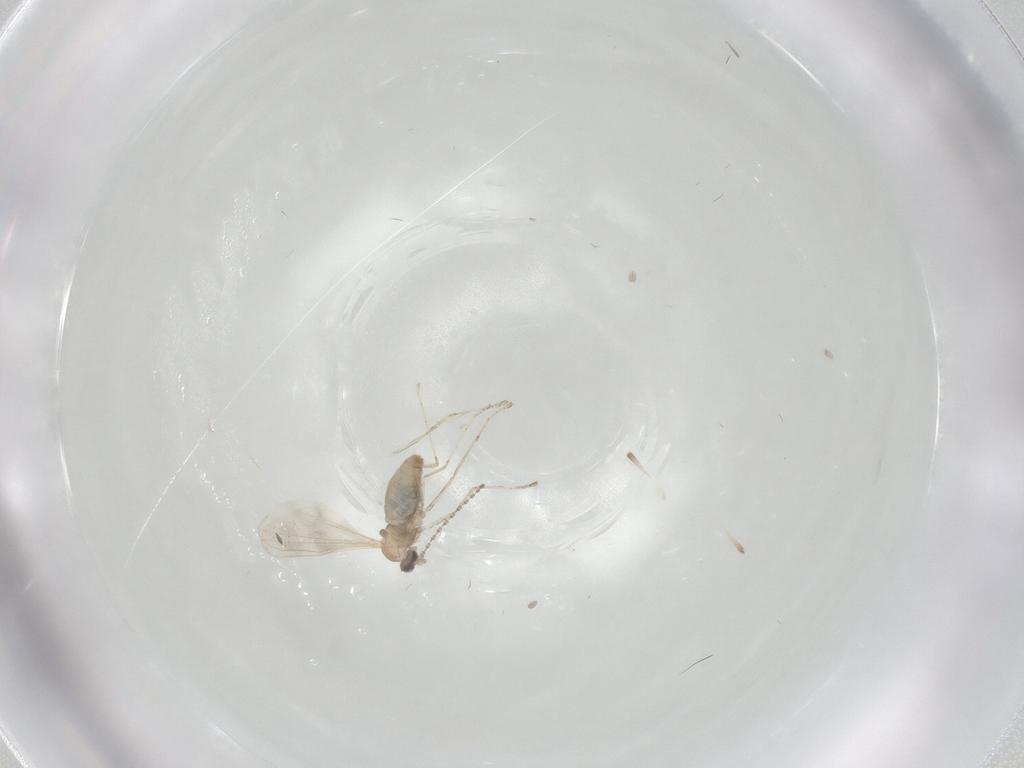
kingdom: Animalia
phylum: Arthropoda
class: Insecta
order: Diptera
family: Cecidomyiidae
